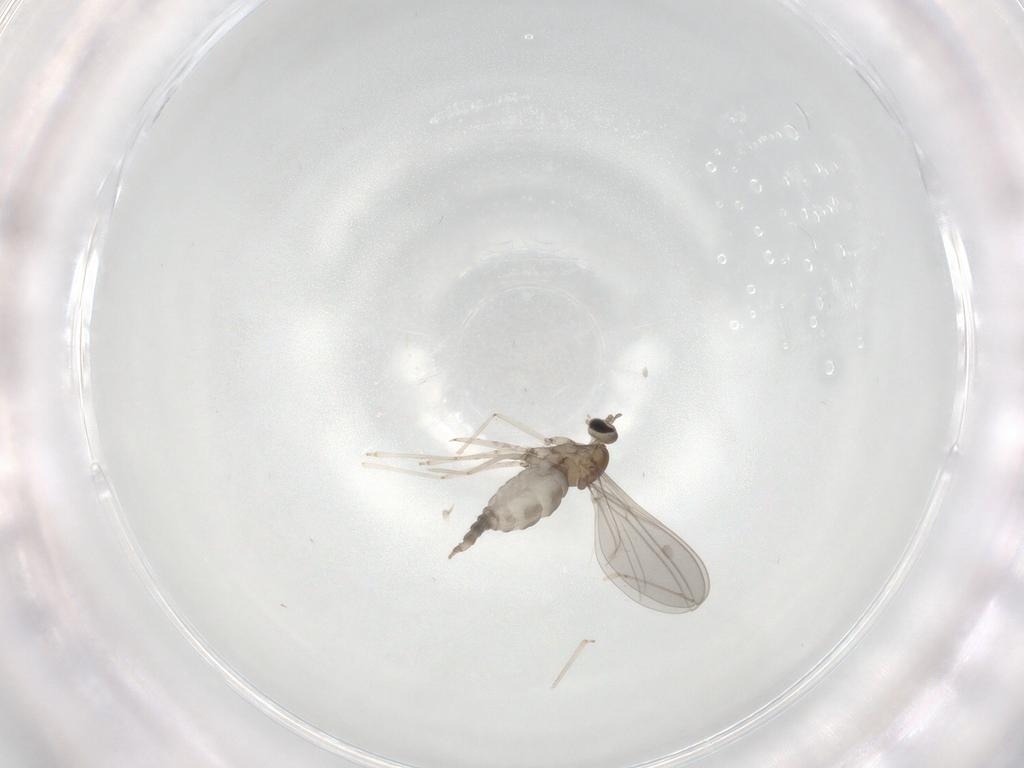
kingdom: Animalia
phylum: Arthropoda
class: Insecta
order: Diptera
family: Cecidomyiidae
